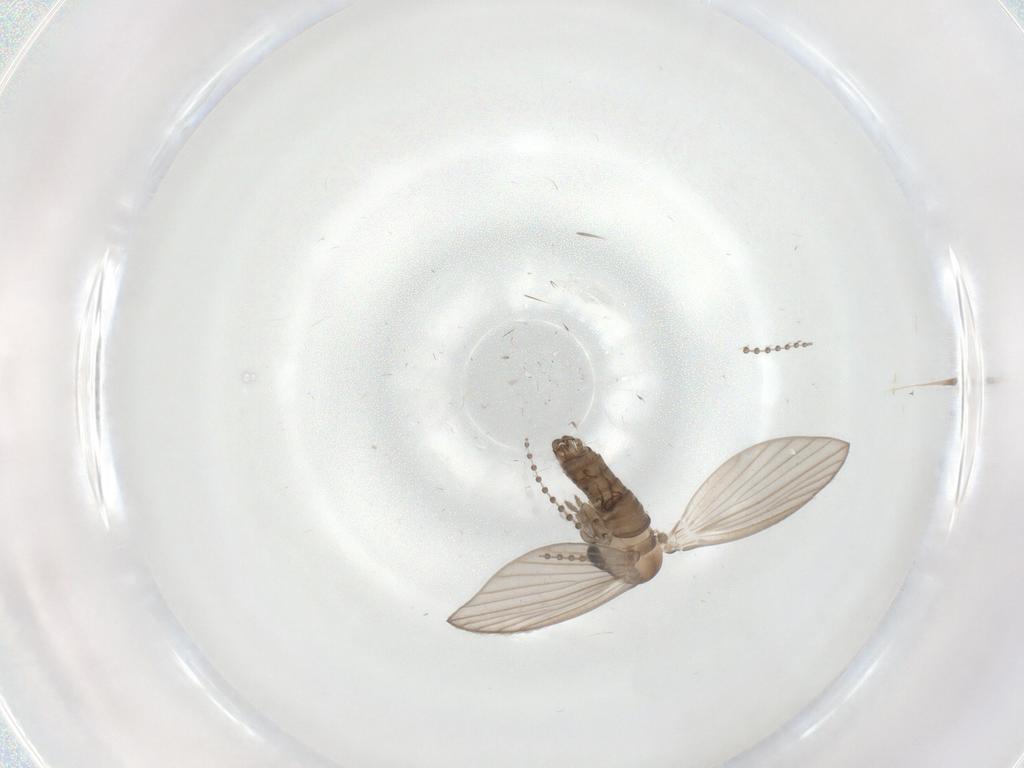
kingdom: Animalia
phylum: Arthropoda
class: Insecta
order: Diptera
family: Psychodidae
